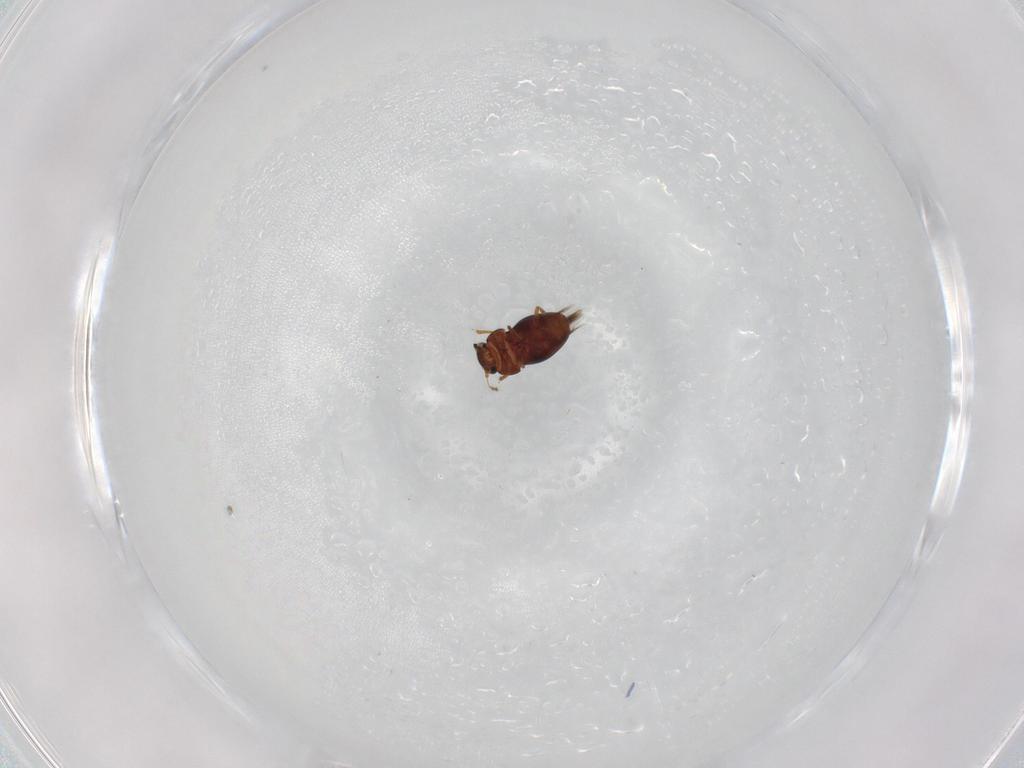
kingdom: Animalia
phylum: Arthropoda
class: Insecta
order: Coleoptera
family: Ptiliidae
